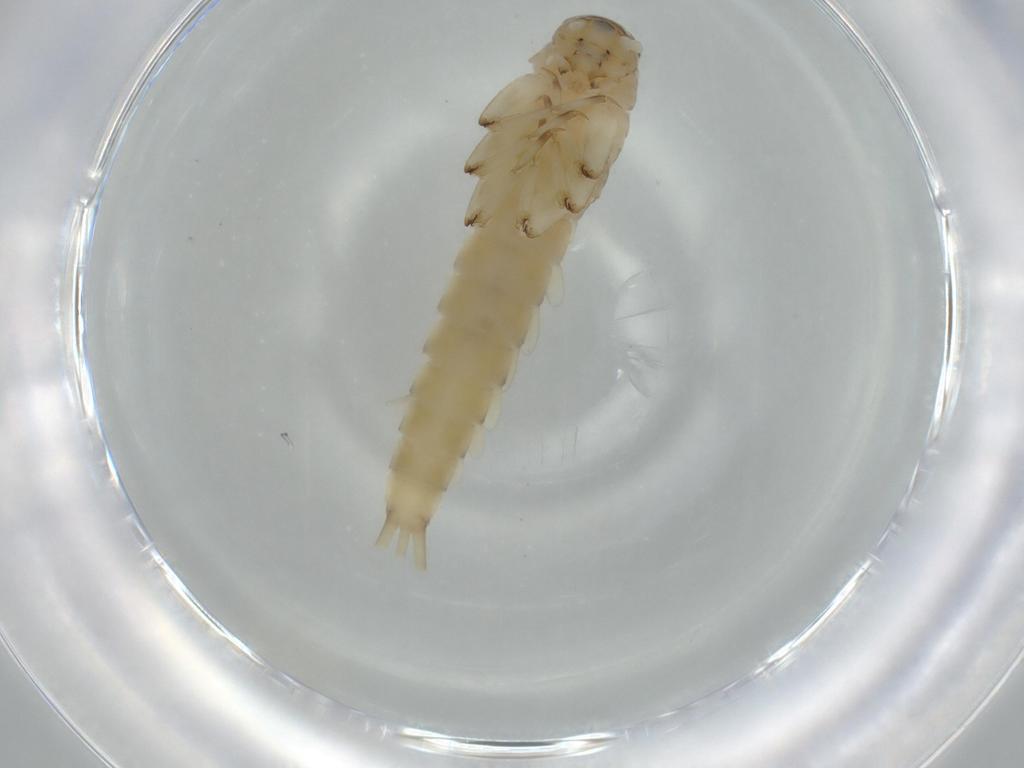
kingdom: Animalia
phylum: Arthropoda
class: Insecta
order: Ephemeroptera
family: Baetidae
